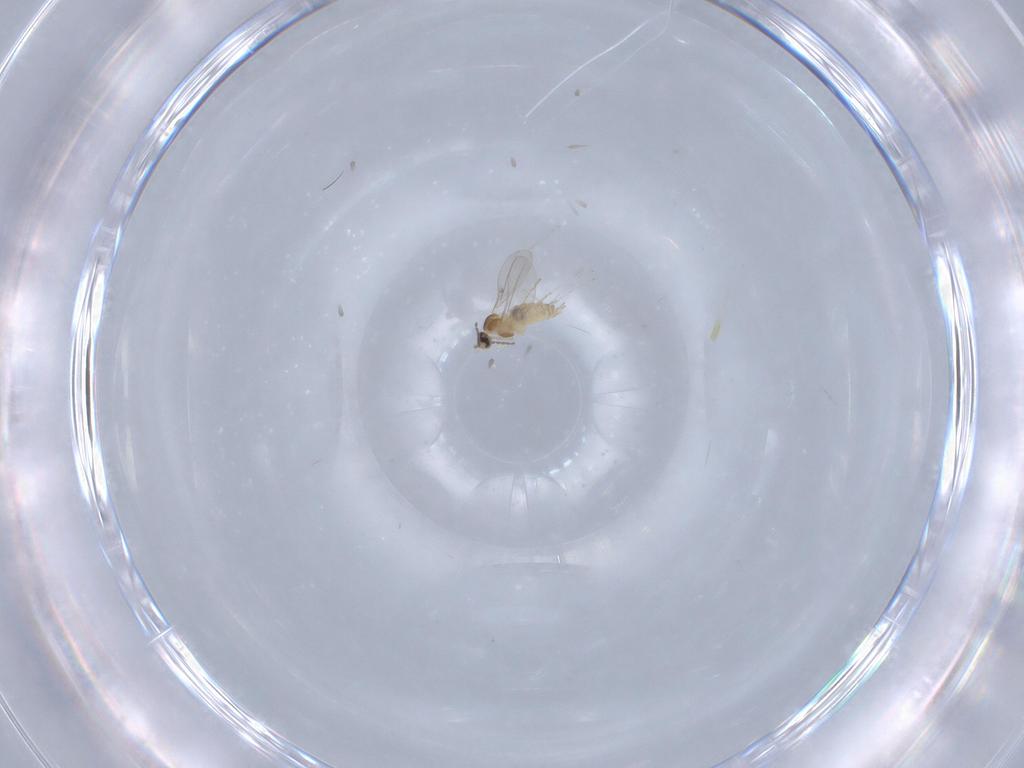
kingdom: Animalia
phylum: Arthropoda
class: Insecta
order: Diptera
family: Cecidomyiidae
